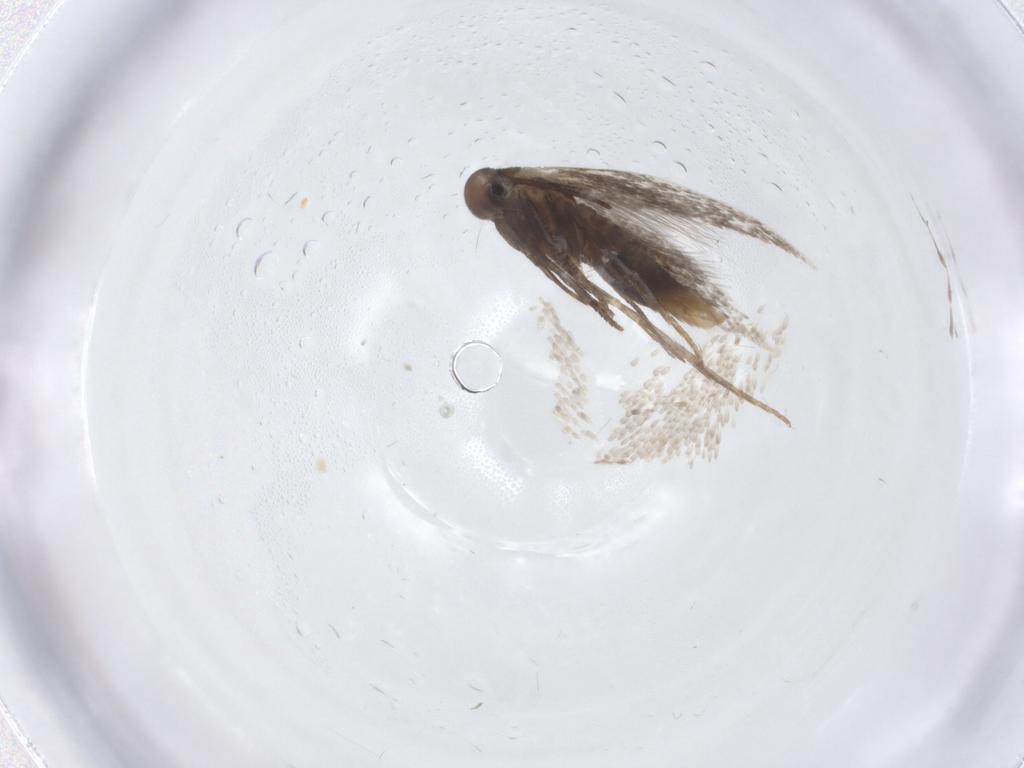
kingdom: Animalia
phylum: Arthropoda
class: Insecta
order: Lepidoptera
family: Elachistidae
